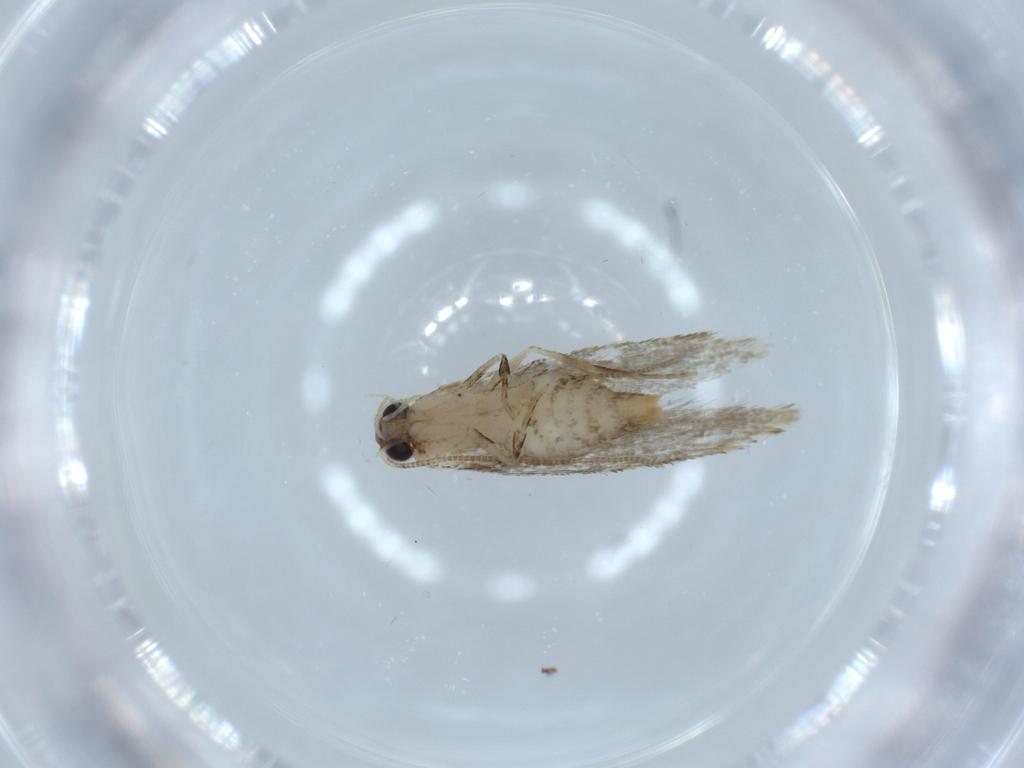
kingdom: Animalia
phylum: Arthropoda
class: Insecta
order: Lepidoptera
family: Tineidae
